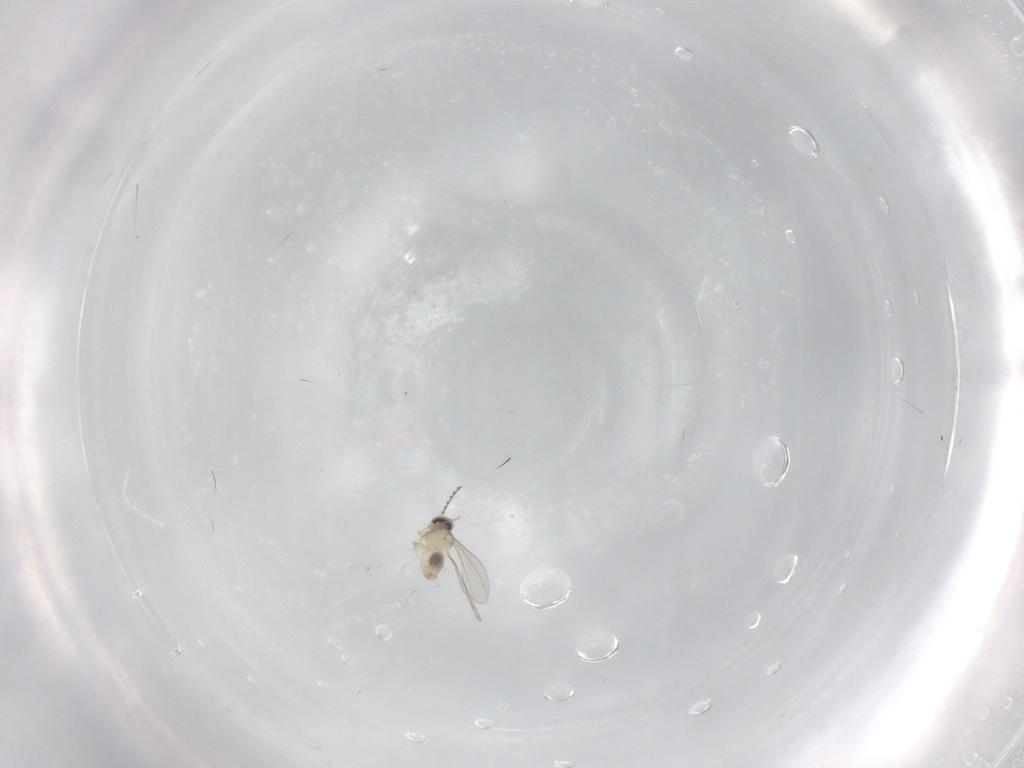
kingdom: Animalia
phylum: Arthropoda
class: Insecta
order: Diptera
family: Cecidomyiidae
